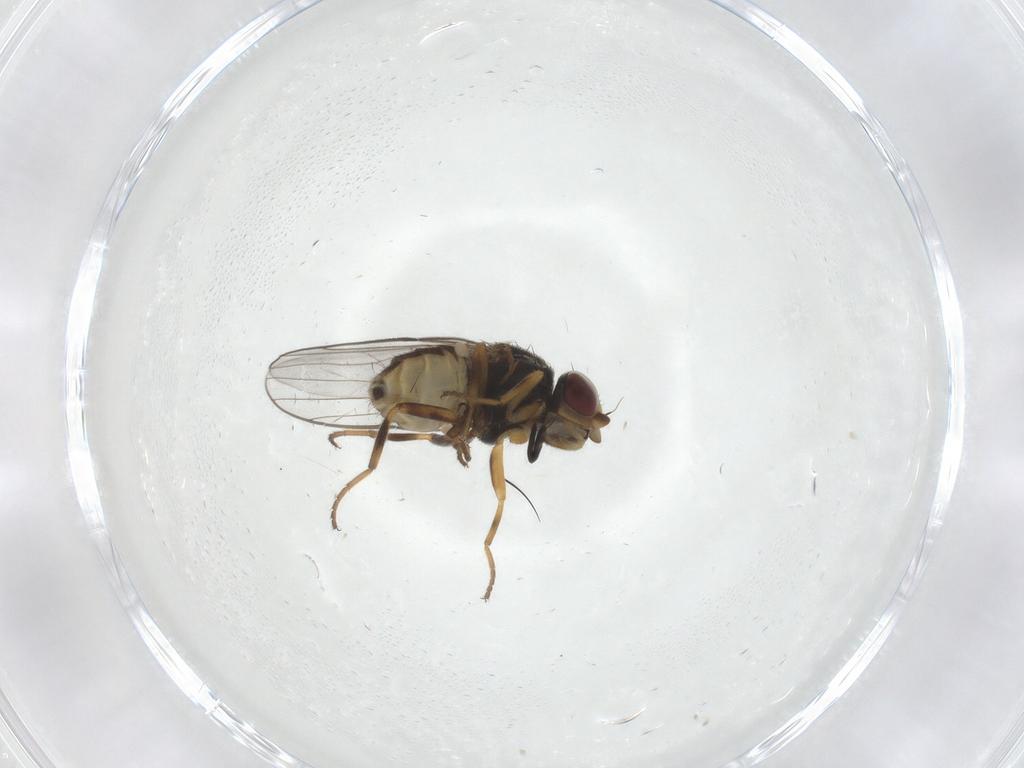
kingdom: Animalia
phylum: Arthropoda
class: Insecta
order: Diptera
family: Chloropidae
